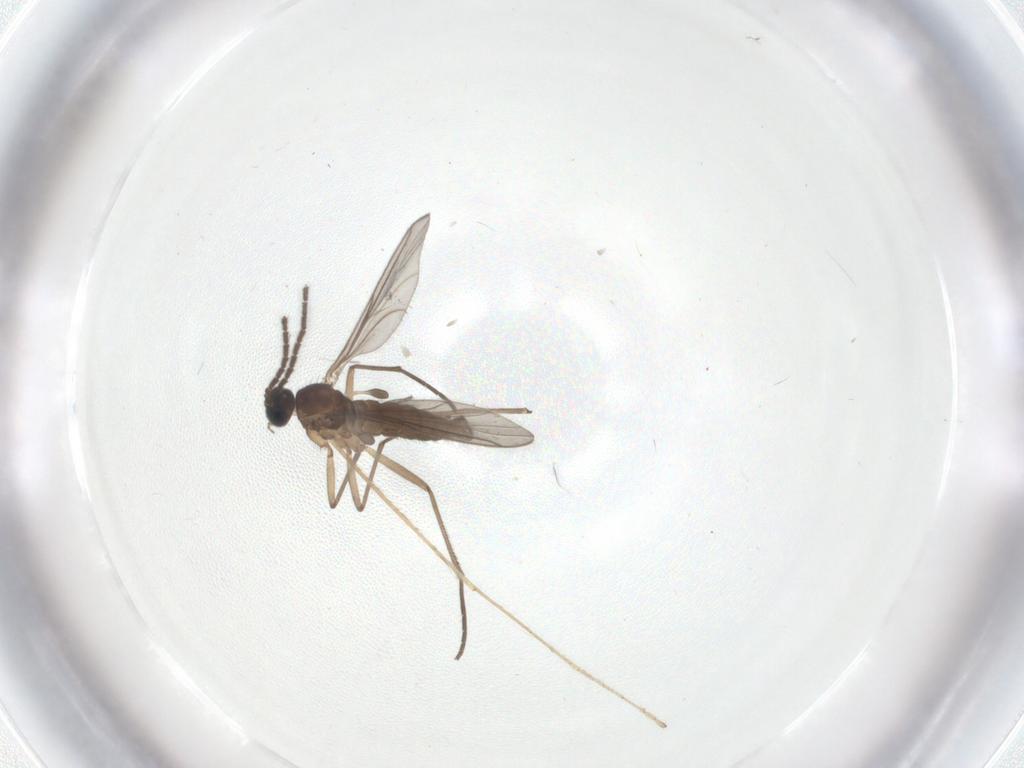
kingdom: Animalia
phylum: Arthropoda
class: Insecta
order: Diptera
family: Limoniidae
